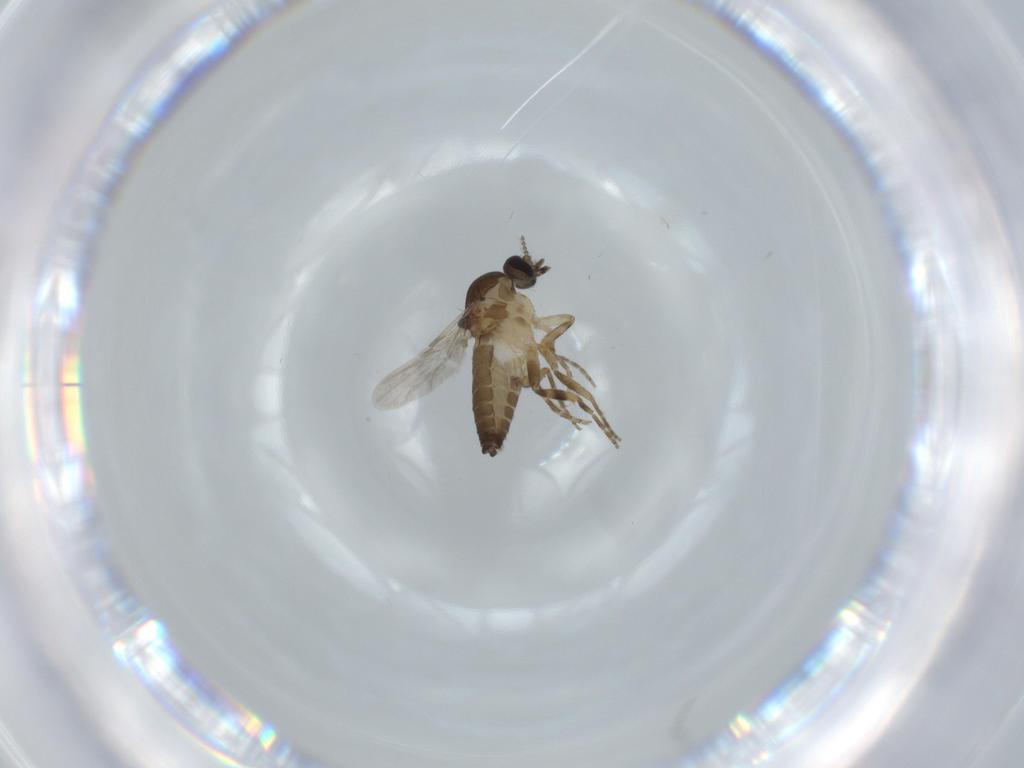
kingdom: Animalia
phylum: Arthropoda
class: Insecta
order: Diptera
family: Ceratopogonidae
